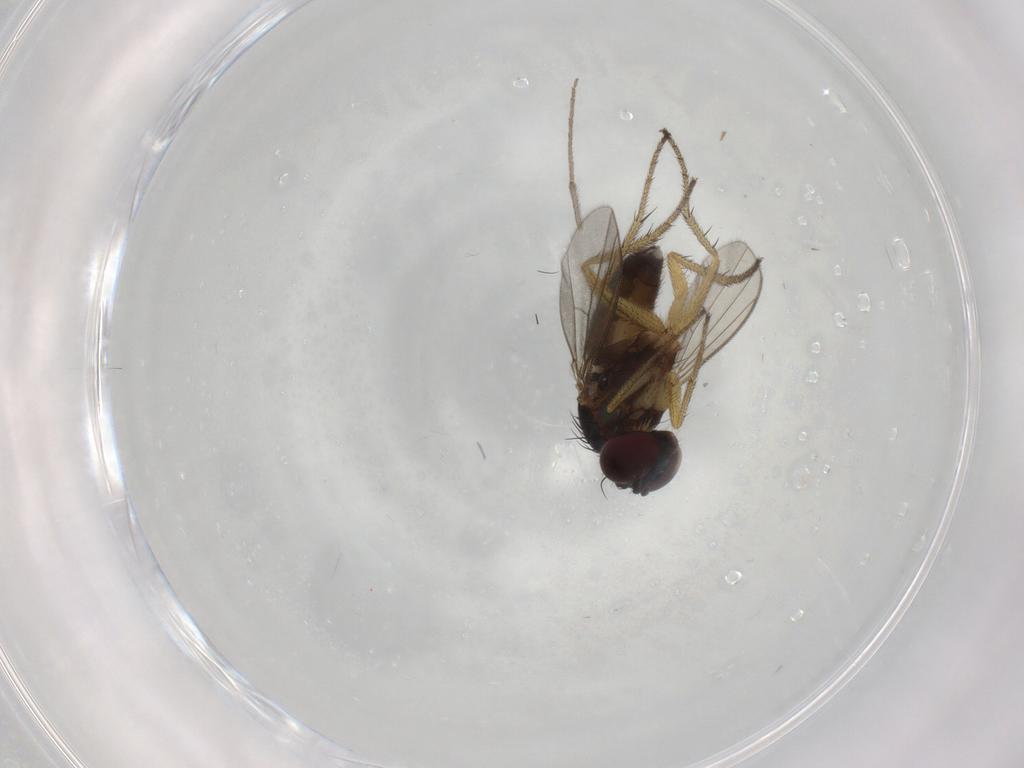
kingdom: Animalia
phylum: Arthropoda
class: Insecta
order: Diptera
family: Dolichopodidae
